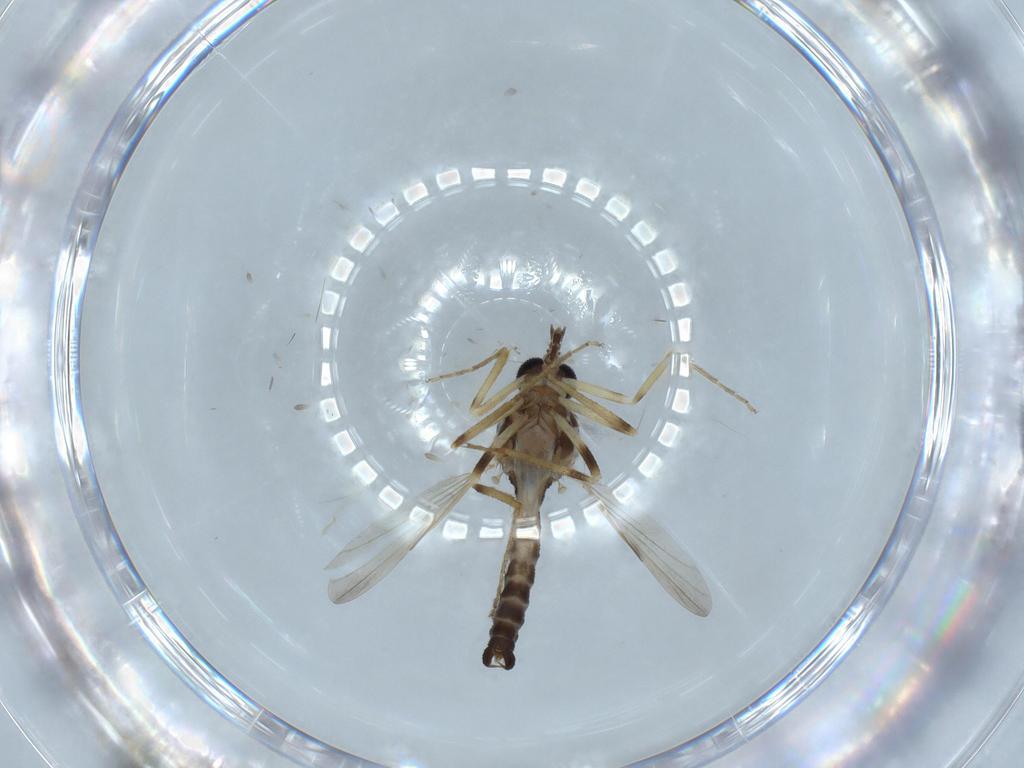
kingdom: Animalia
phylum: Arthropoda
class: Insecta
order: Diptera
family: Ceratopogonidae
